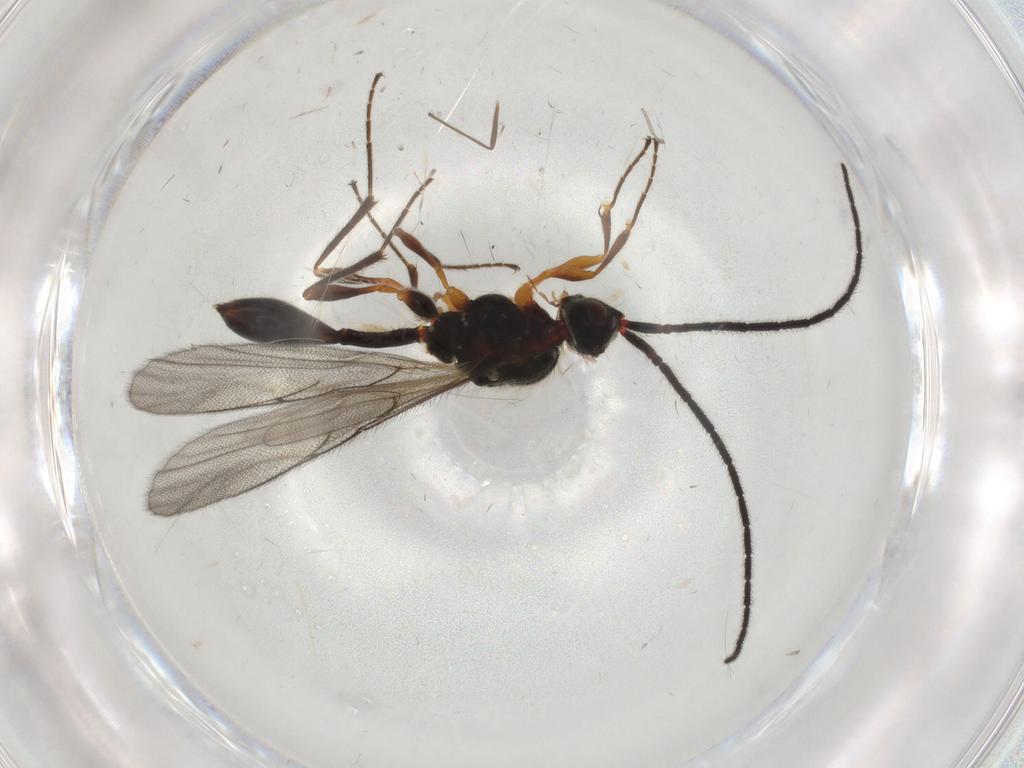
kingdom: Animalia
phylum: Arthropoda
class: Insecta
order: Hymenoptera
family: Diapriidae
